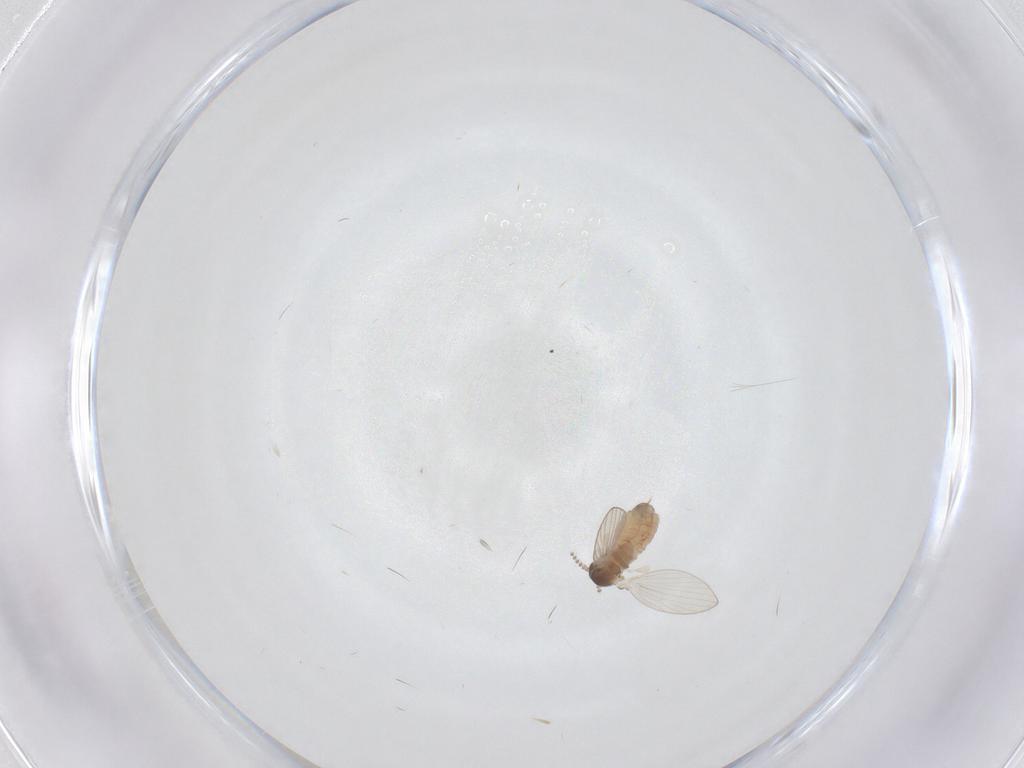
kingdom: Animalia
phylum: Arthropoda
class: Insecta
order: Diptera
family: Psychodidae
